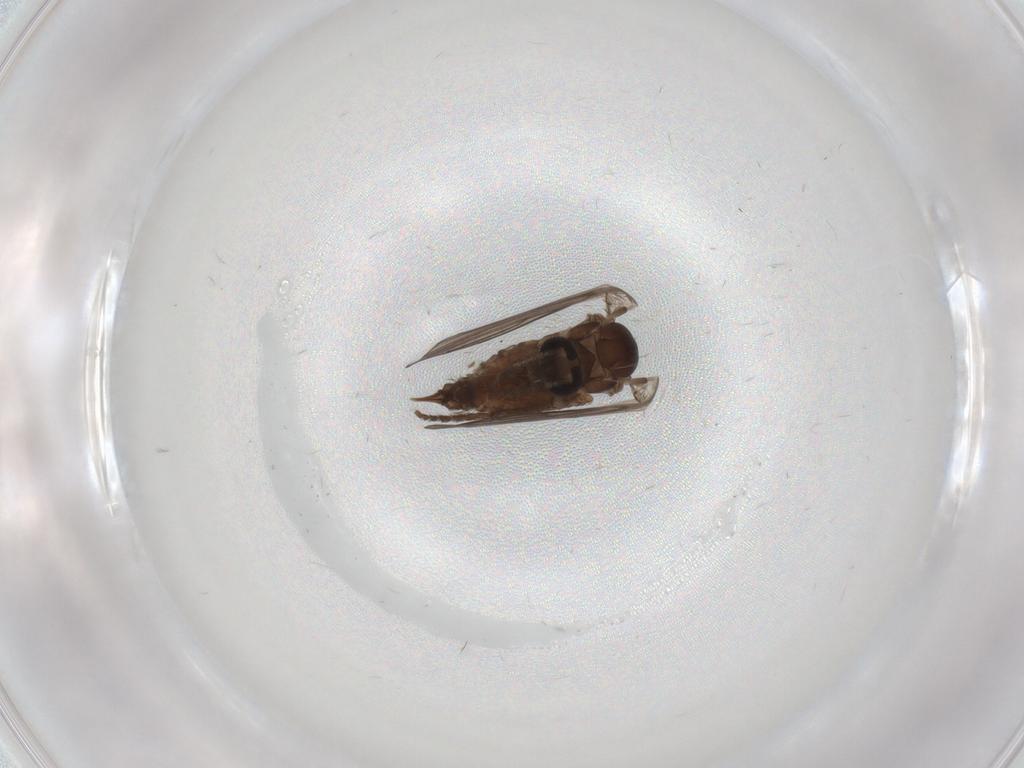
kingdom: Animalia
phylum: Arthropoda
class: Insecta
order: Diptera
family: Psychodidae
